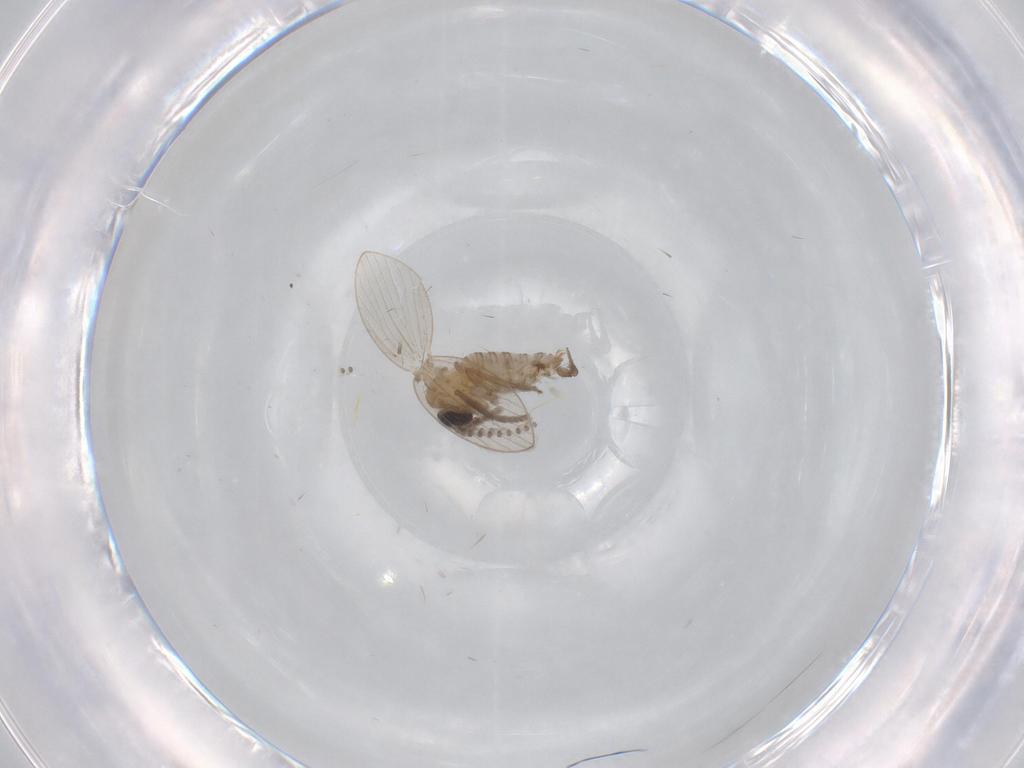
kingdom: Animalia
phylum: Arthropoda
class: Insecta
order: Diptera
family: Psychodidae
